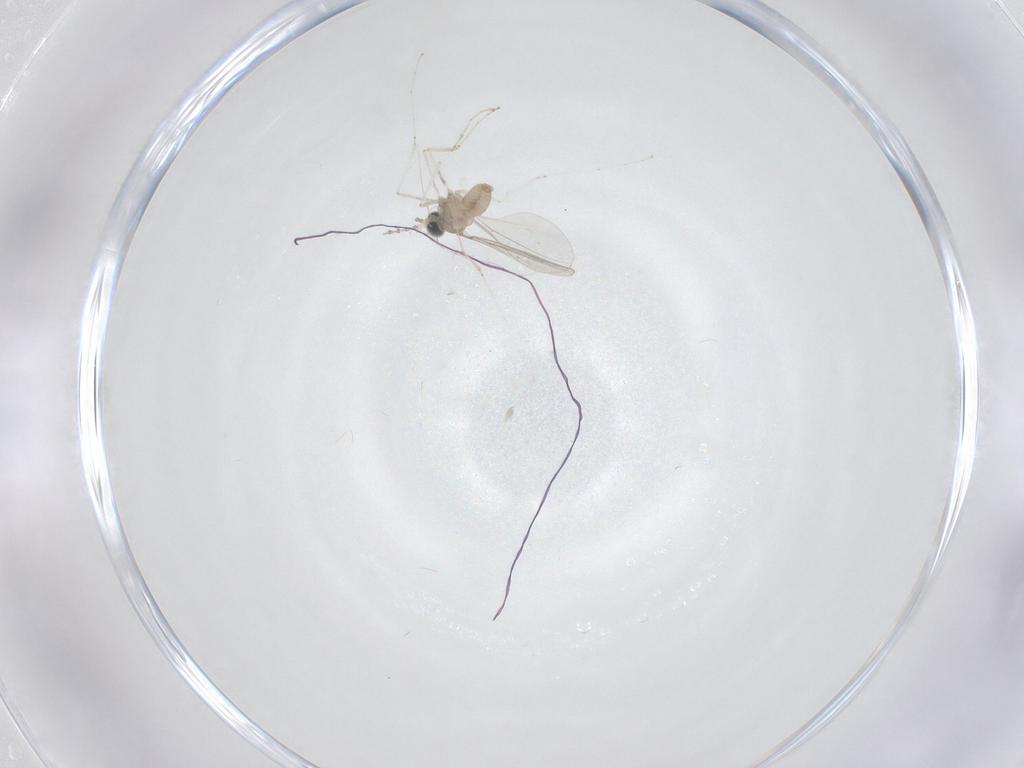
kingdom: Animalia
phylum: Arthropoda
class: Insecta
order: Diptera
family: Cecidomyiidae
